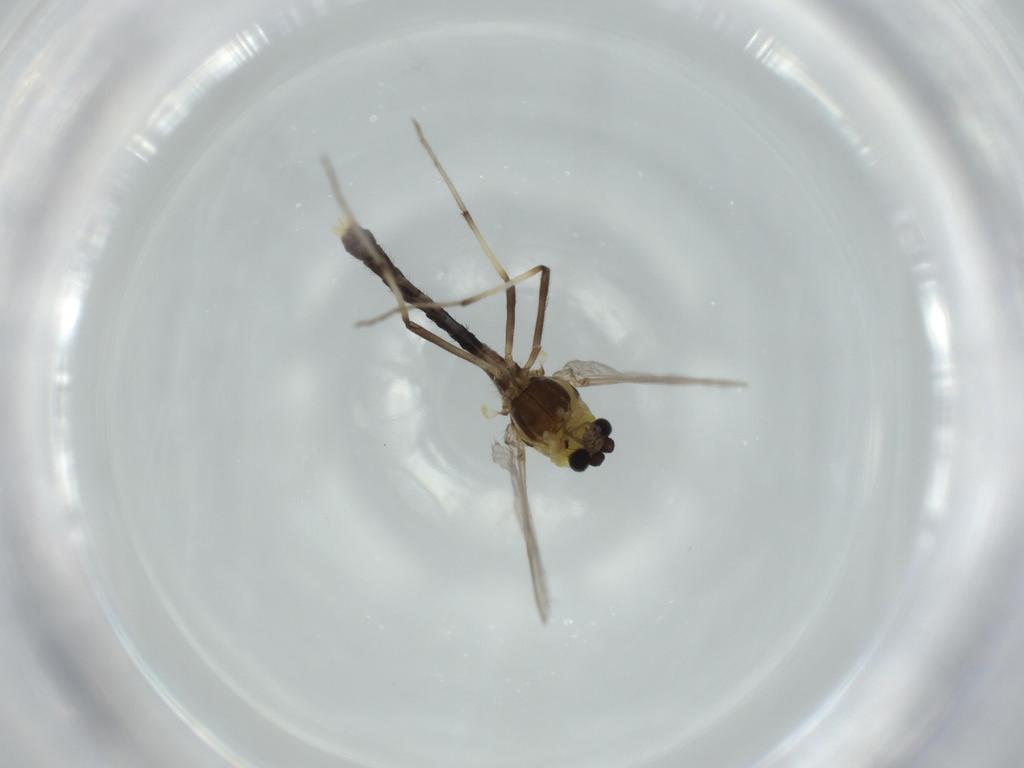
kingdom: Animalia
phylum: Arthropoda
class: Insecta
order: Diptera
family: Chironomidae
